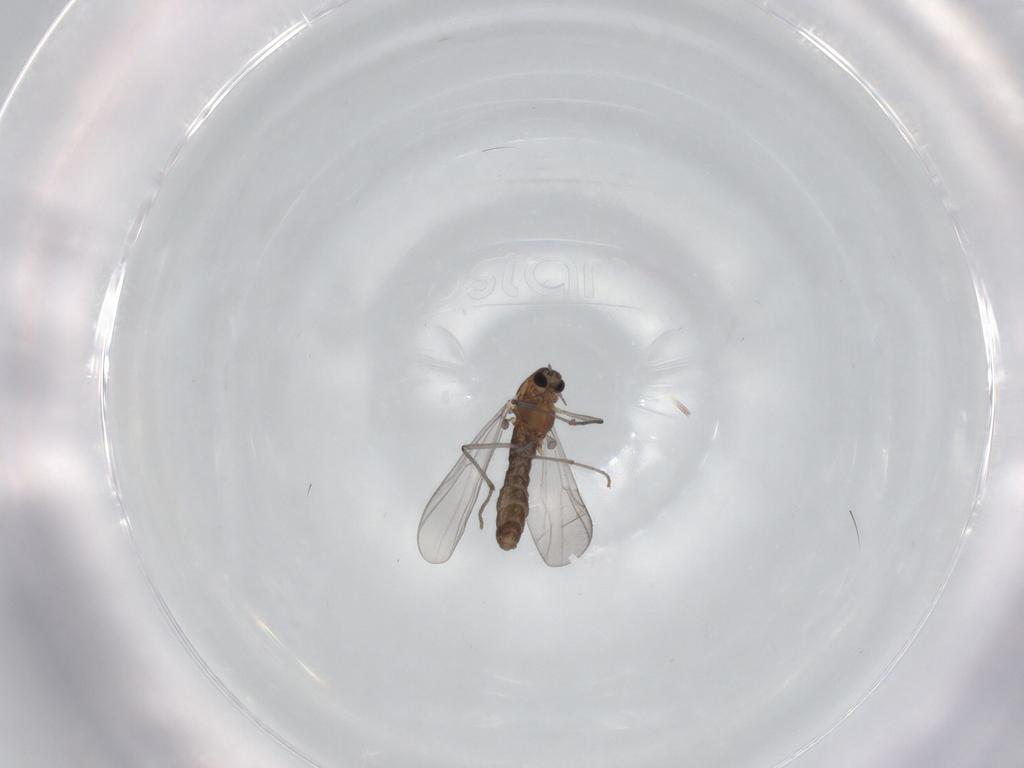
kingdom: Animalia
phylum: Arthropoda
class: Insecta
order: Diptera
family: Chironomidae
